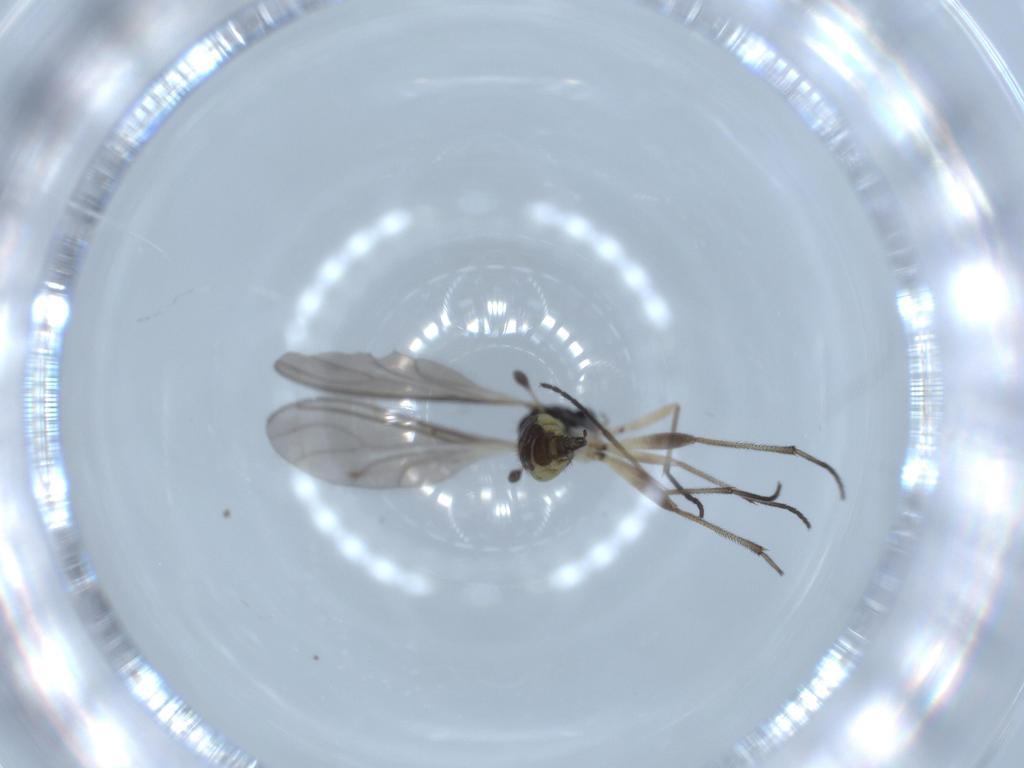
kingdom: Animalia
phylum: Arthropoda
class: Insecta
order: Diptera
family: Sciaridae
